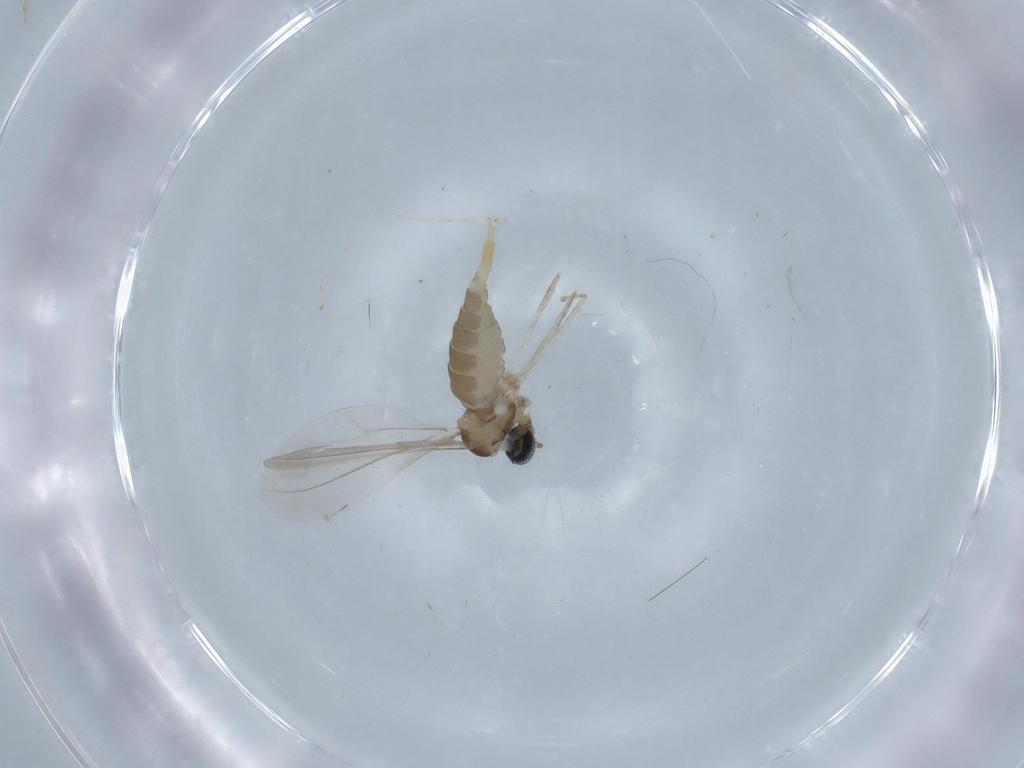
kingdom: Animalia
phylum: Arthropoda
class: Insecta
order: Diptera
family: Cecidomyiidae
